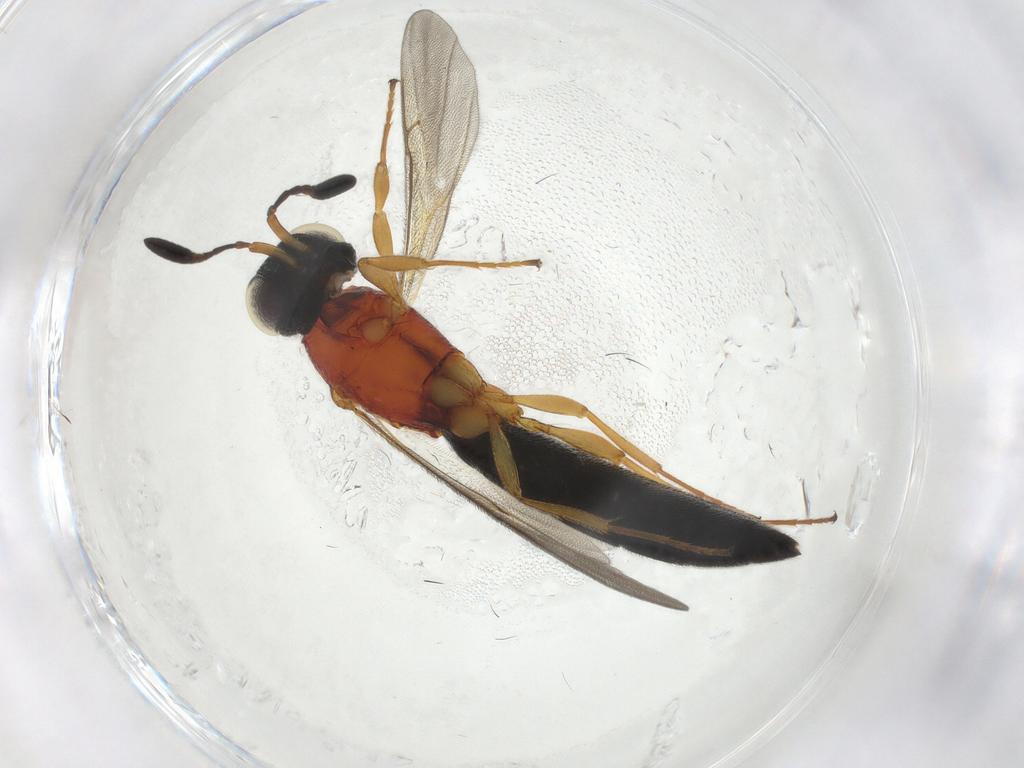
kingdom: Animalia
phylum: Arthropoda
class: Insecta
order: Hymenoptera
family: Scelionidae
